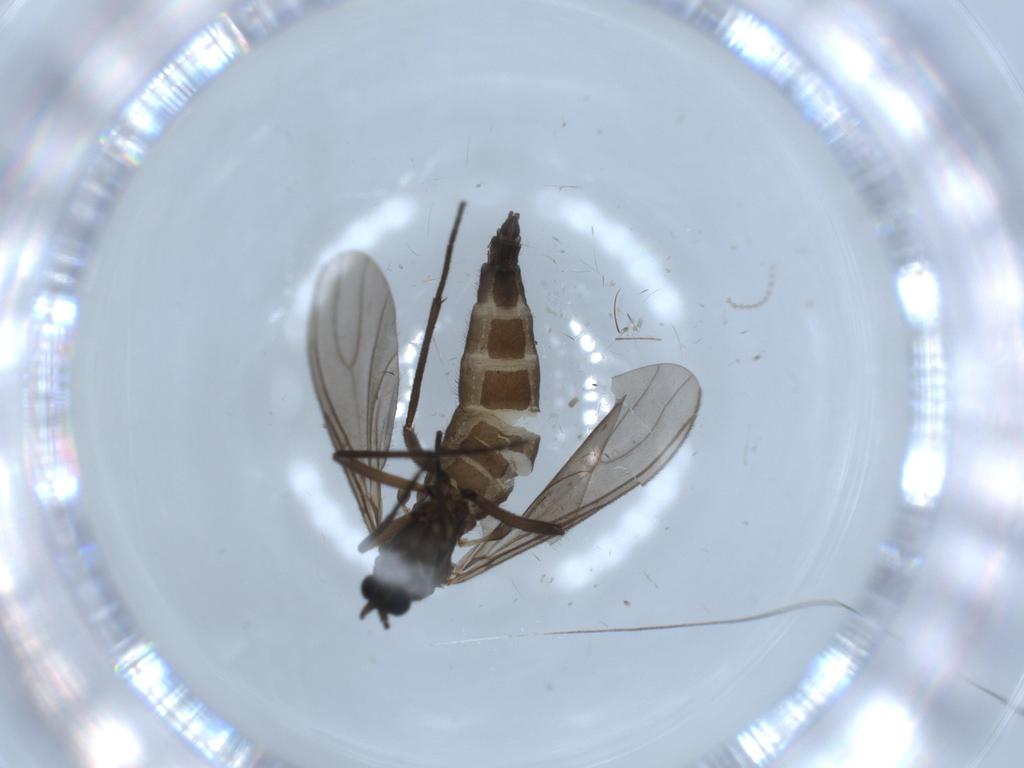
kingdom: Animalia
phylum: Arthropoda
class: Insecta
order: Diptera
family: Sciaridae
